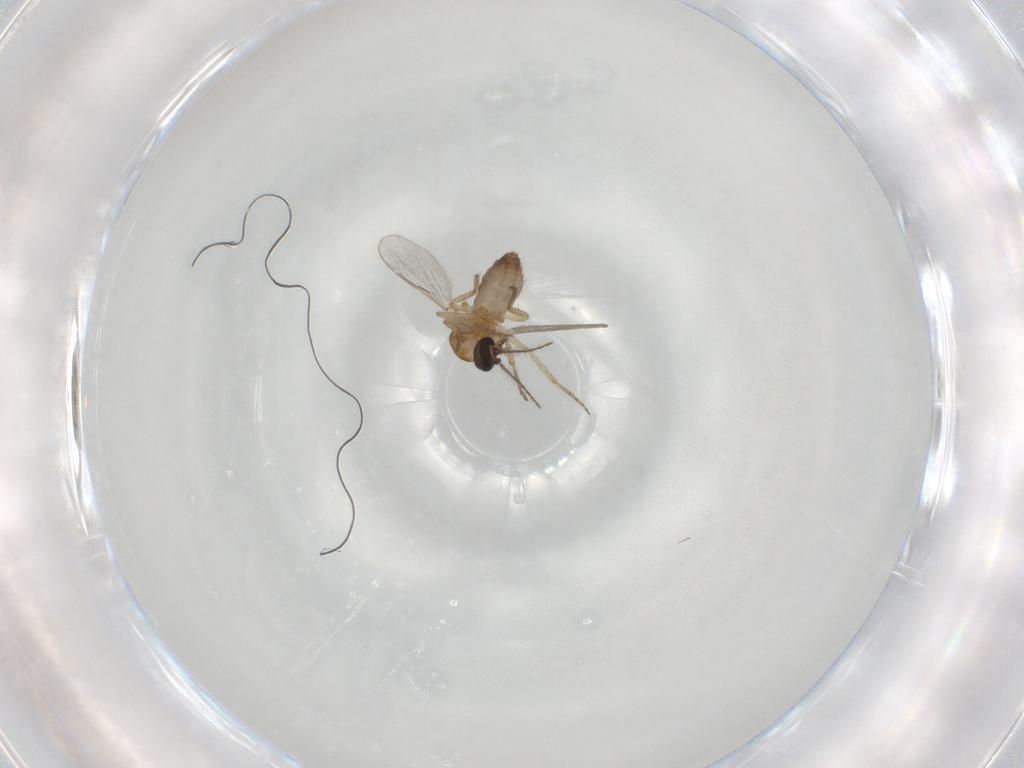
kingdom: Animalia
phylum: Arthropoda
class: Insecta
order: Diptera
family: Ceratopogonidae
